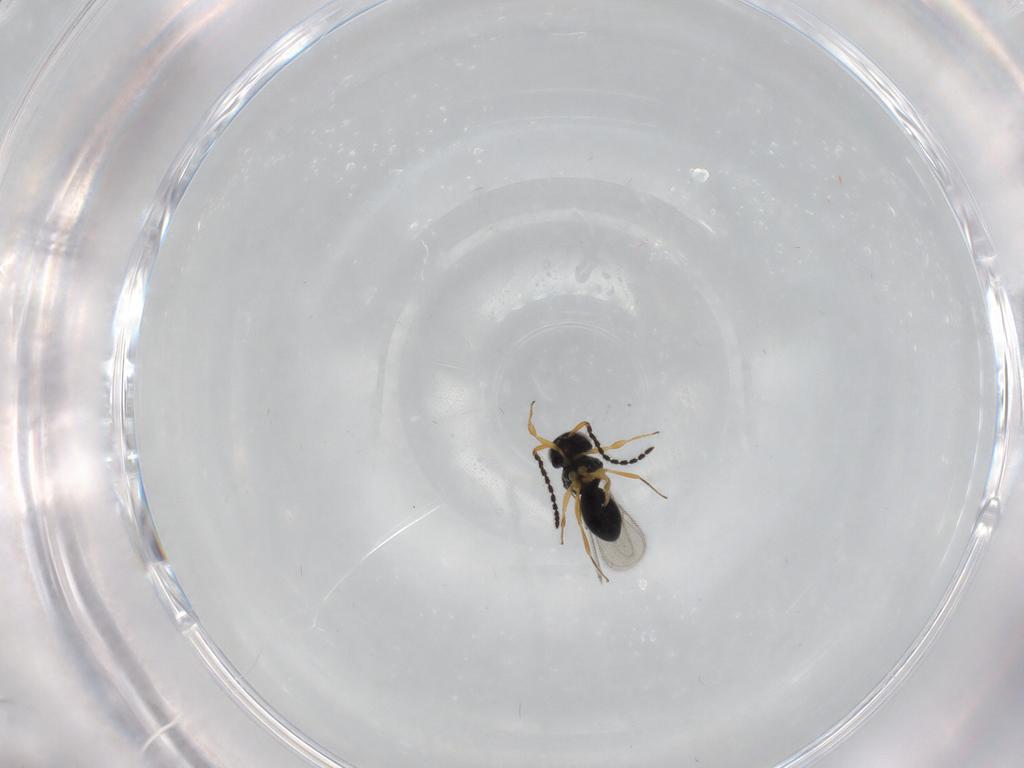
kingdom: Animalia
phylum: Arthropoda
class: Insecta
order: Hymenoptera
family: Scelionidae
